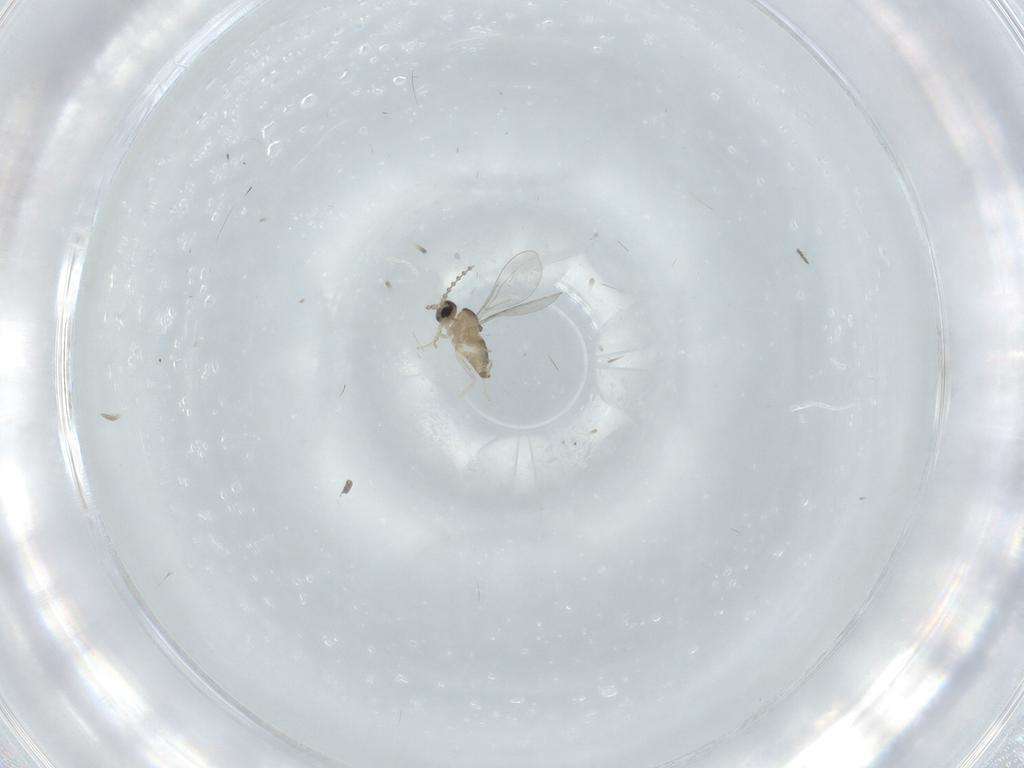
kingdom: Animalia
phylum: Arthropoda
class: Insecta
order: Diptera
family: Cecidomyiidae
